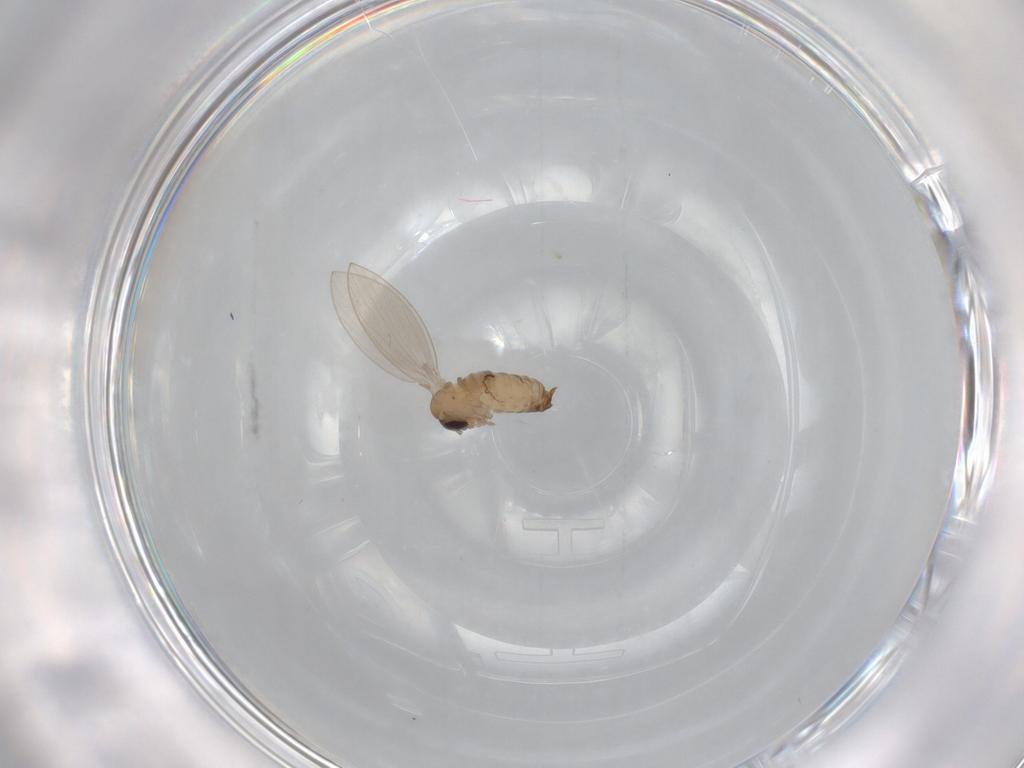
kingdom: Animalia
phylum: Arthropoda
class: Insecta
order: Diptera
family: Psychodidae
